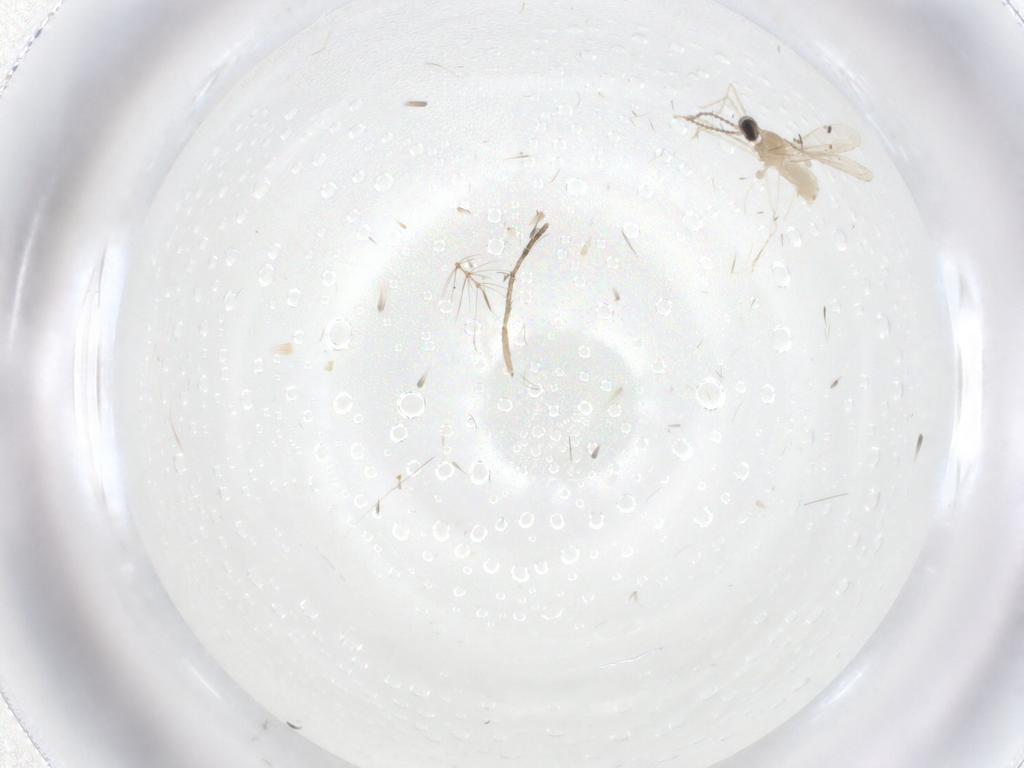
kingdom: Animalia
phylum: Arthropoda
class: Insecta
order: Diptera
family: Sciaridae
